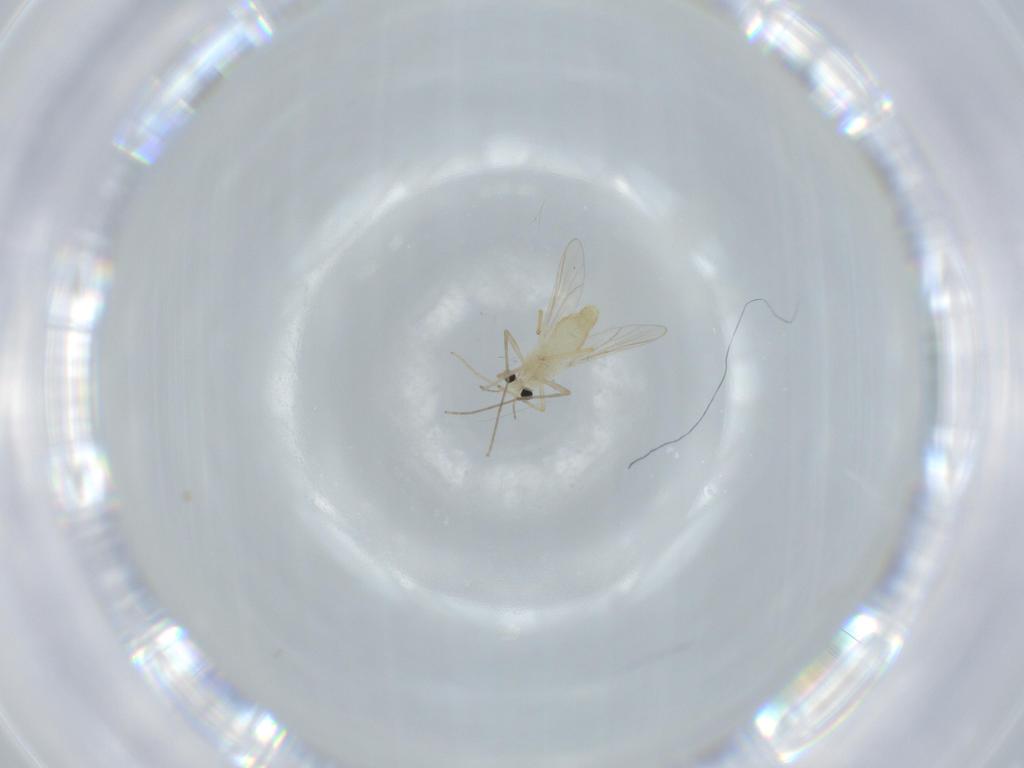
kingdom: Animalia
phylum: Arthropoda
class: Insecta
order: Diptera
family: Chironomidae
